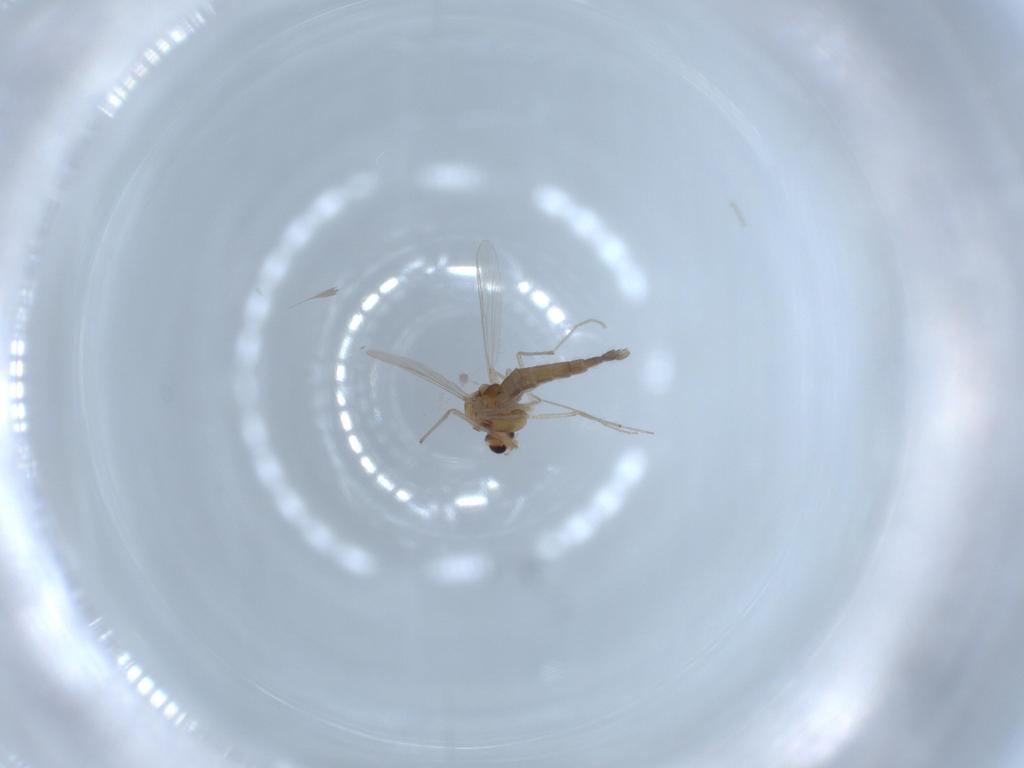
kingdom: Animalia
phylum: Arthropoda
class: Insecta
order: Diptera
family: Chironomidae
